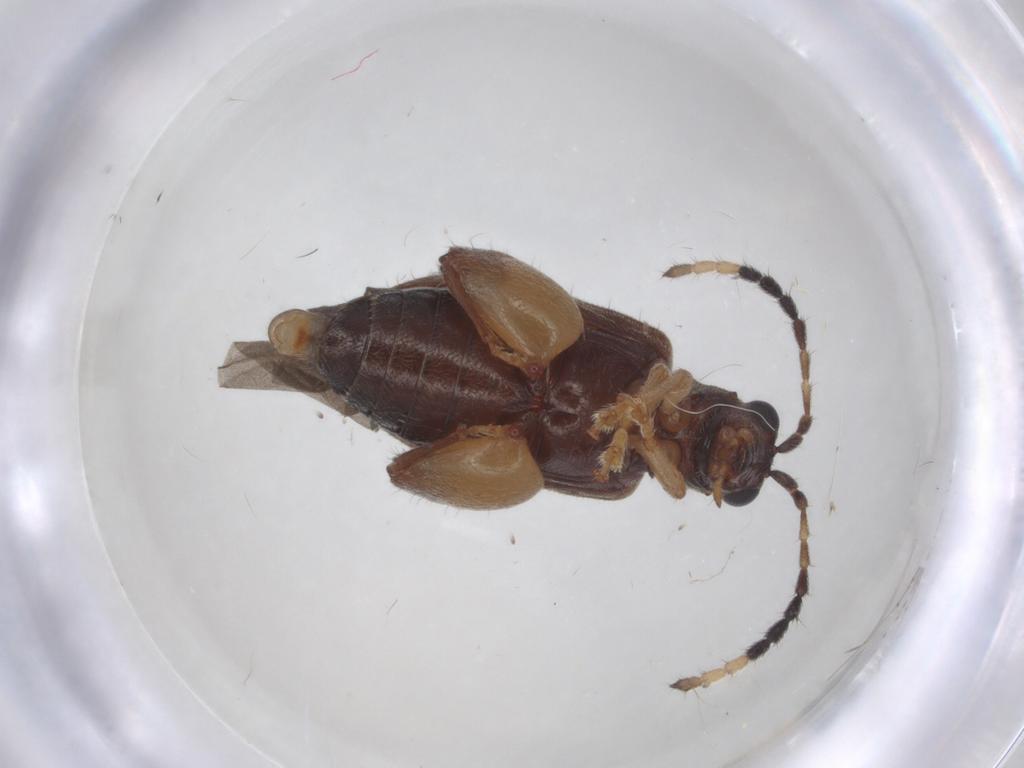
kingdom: Animalia
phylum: Arthropoda
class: Insecta
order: Coleoptera
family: Chrysomelidae
